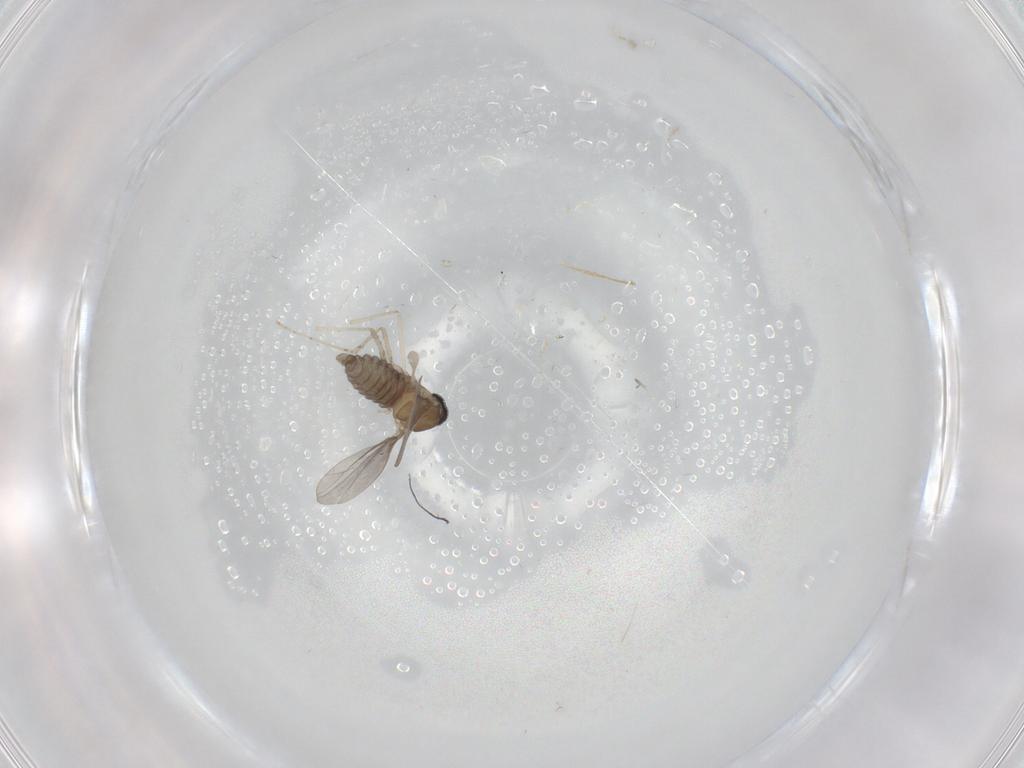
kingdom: Animalia
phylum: Arthropoda
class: Insecta
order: Diptera
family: Cecidomyiidae
